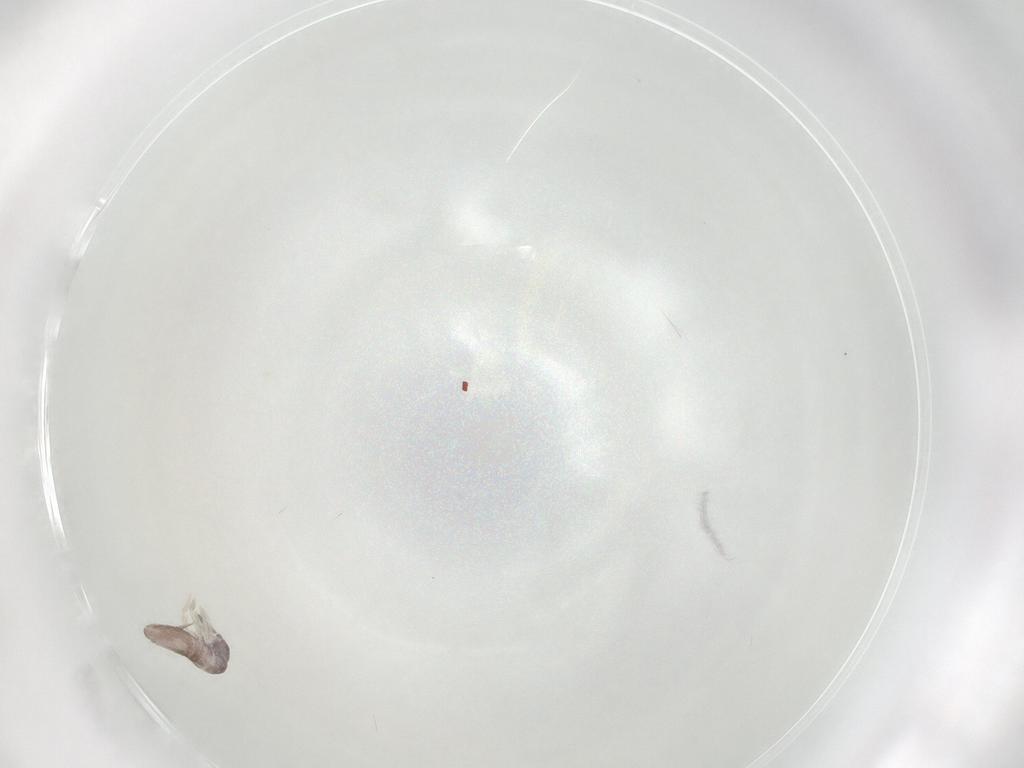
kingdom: Animalia
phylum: Arthropoda
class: Collembola
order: Entomobryomorpha
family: Entomobryidae
